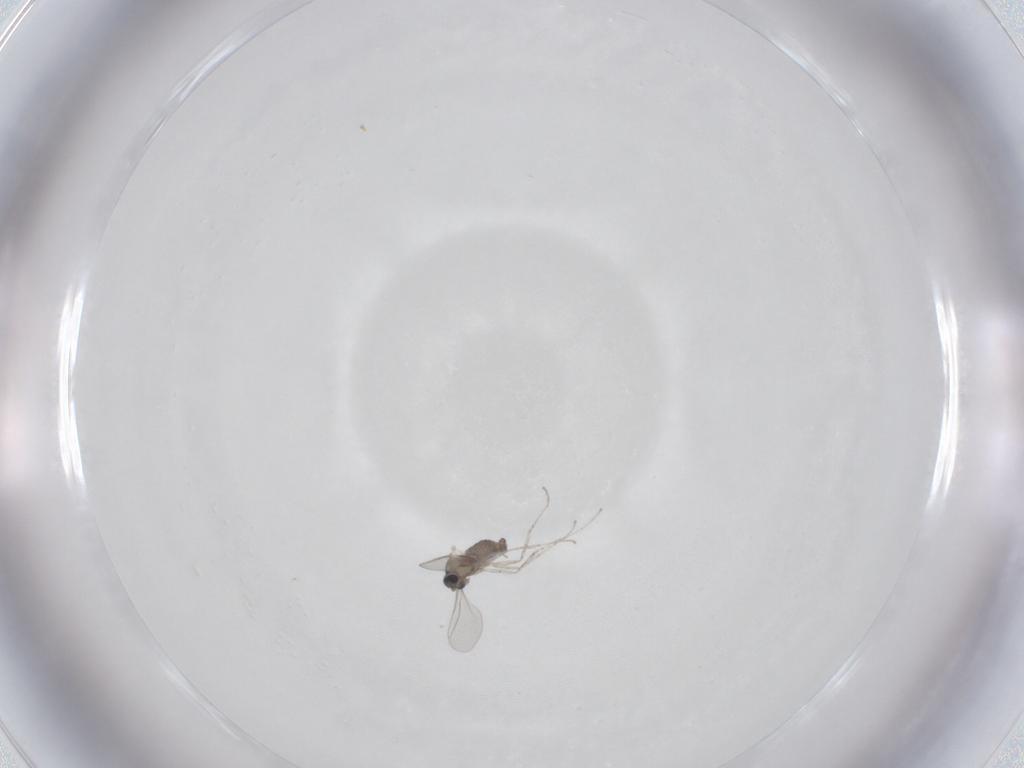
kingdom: Animalia
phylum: Arthropoda
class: Insecta
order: Diptera
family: Cecidomyiidae
